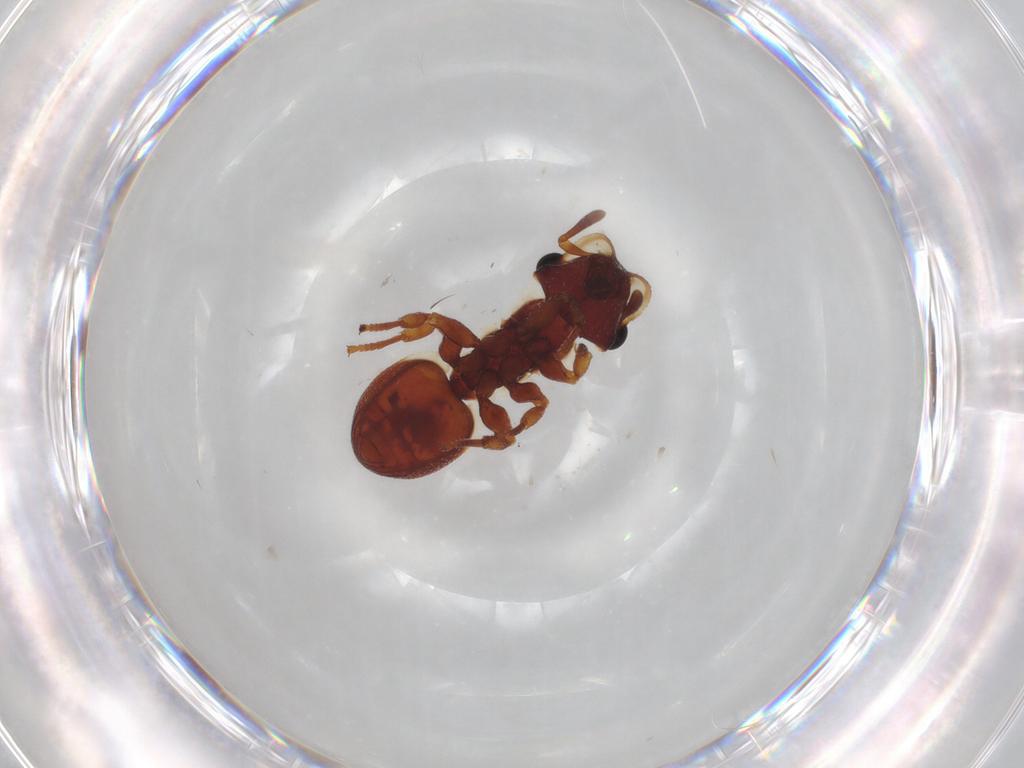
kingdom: Animalia
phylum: Arthropoda
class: Insecta
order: Hymenoptera
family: Formicidae
